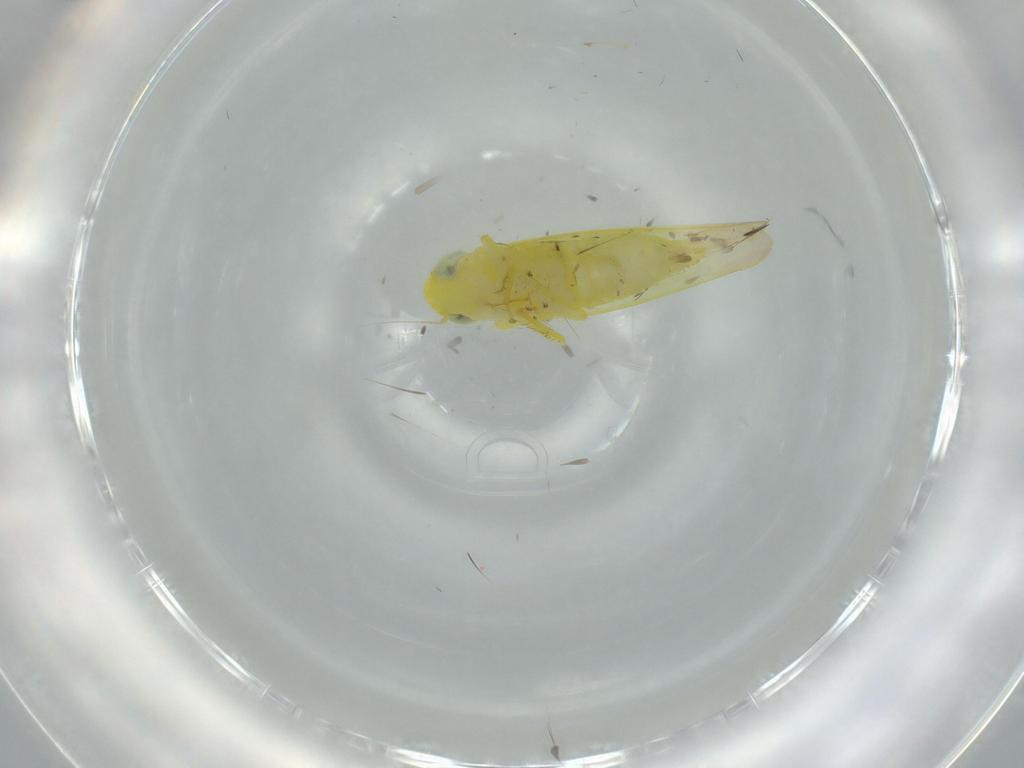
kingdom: Animalia
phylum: Arthropoda
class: Insecta
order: Hemiptera
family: Cicadellidae
